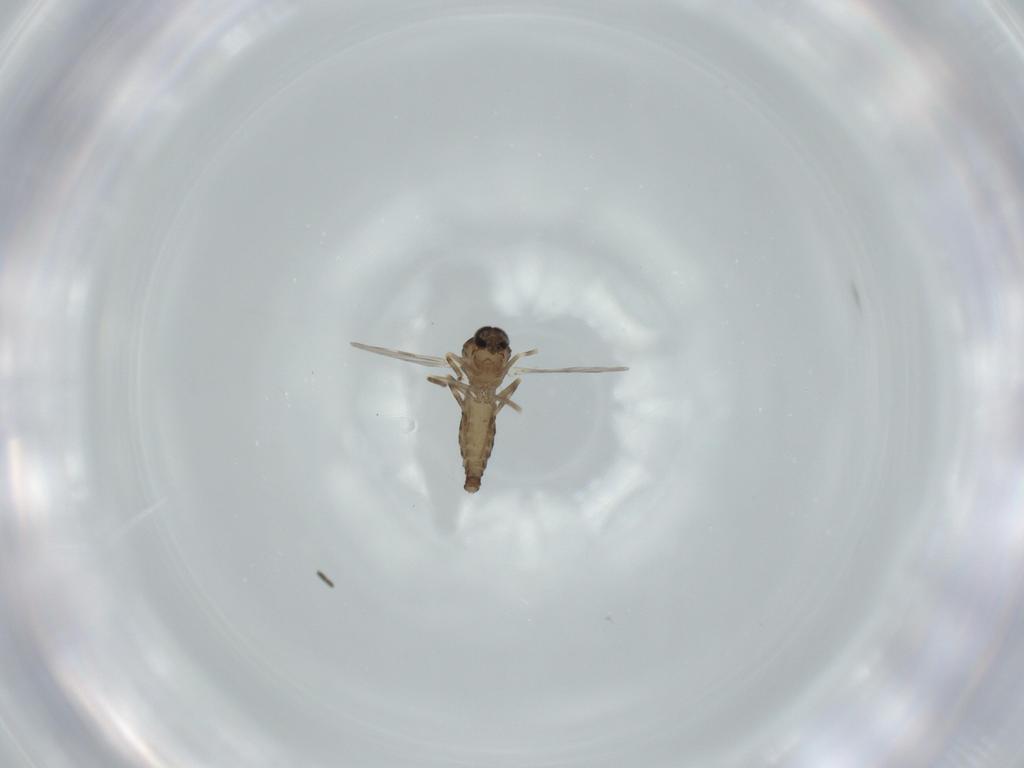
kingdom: Animalia
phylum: Arthropoda
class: Insecta
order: Diptera
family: Ceratopogonidae
